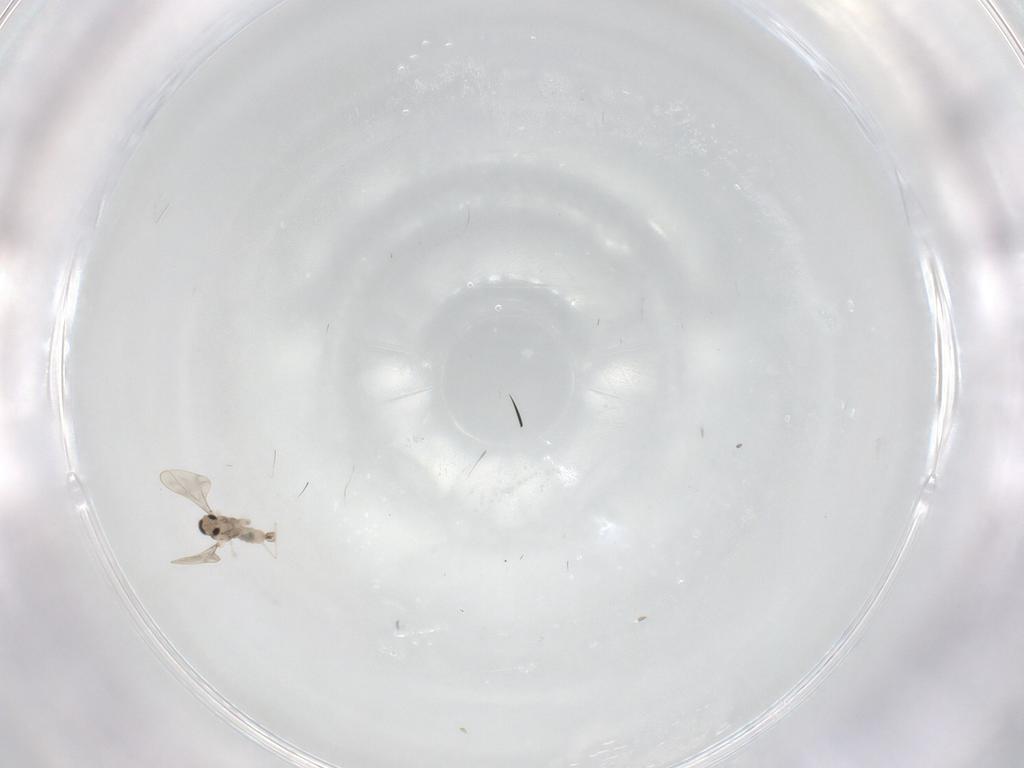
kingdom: Animalia
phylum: Arthropoda
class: Insecta
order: Diptera
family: Cecidomyiidae
